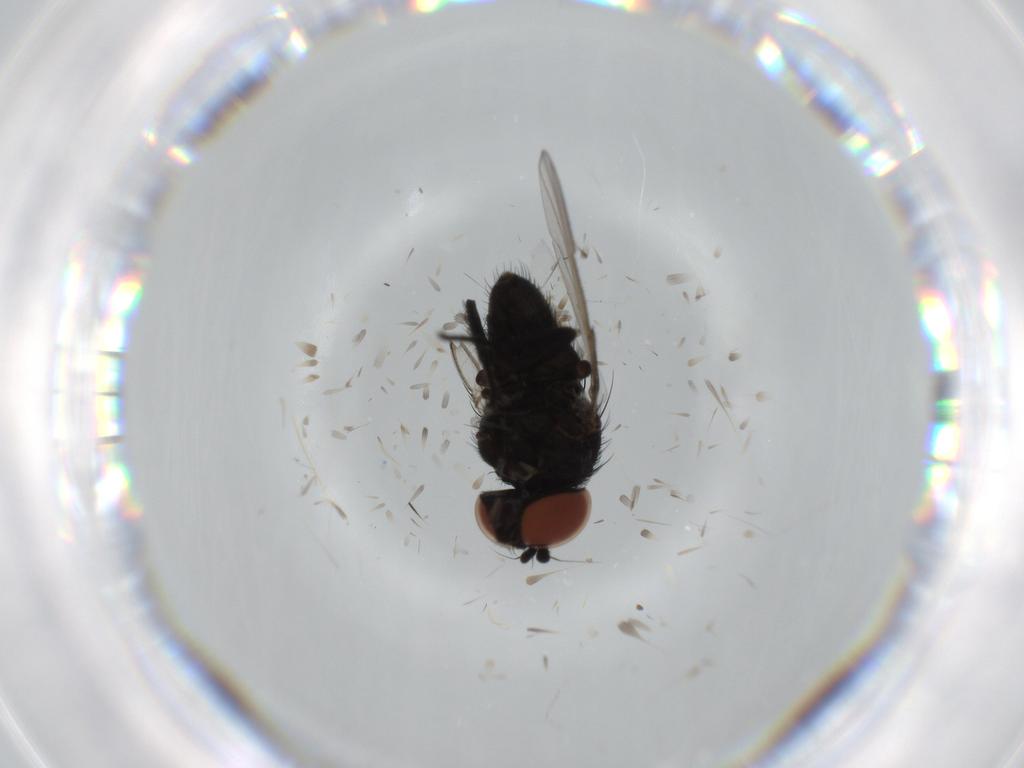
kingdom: Animalia
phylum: Arthropoda
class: Insecta
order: Diptera
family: Milichiidae
